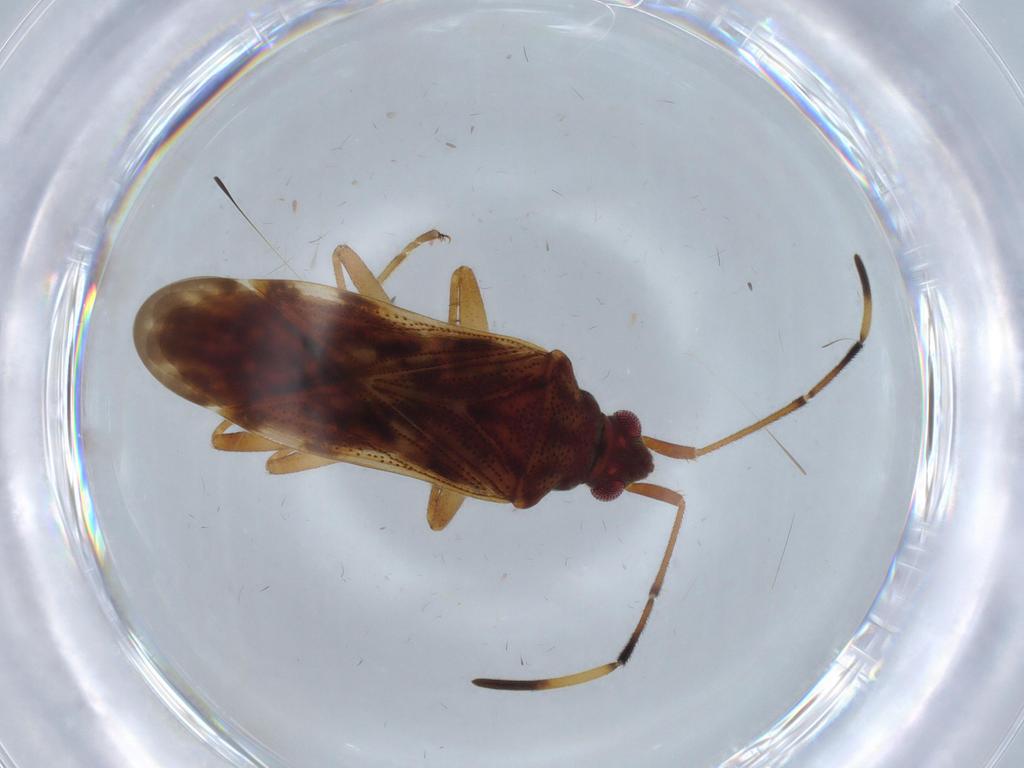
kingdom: Animalia
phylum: Arthropoda
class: Insecta
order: Hemiptera
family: Rhyparochromidae
